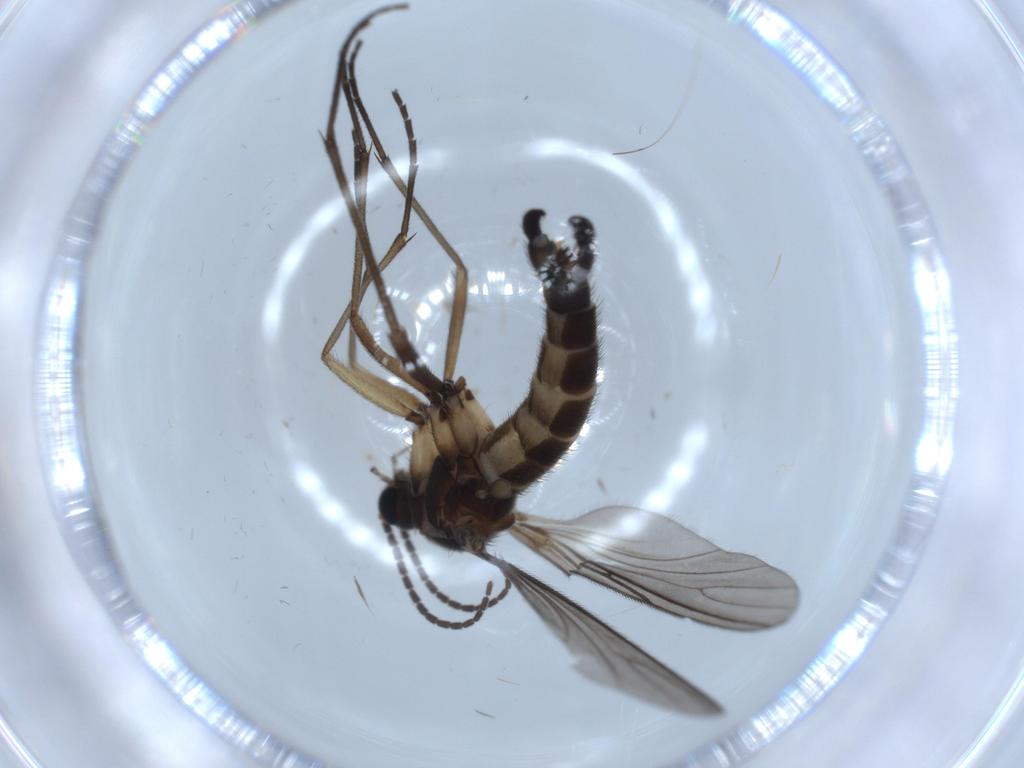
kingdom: Animalia
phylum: Arthropoda
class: Insecta
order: Diptera
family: Sciaridae
